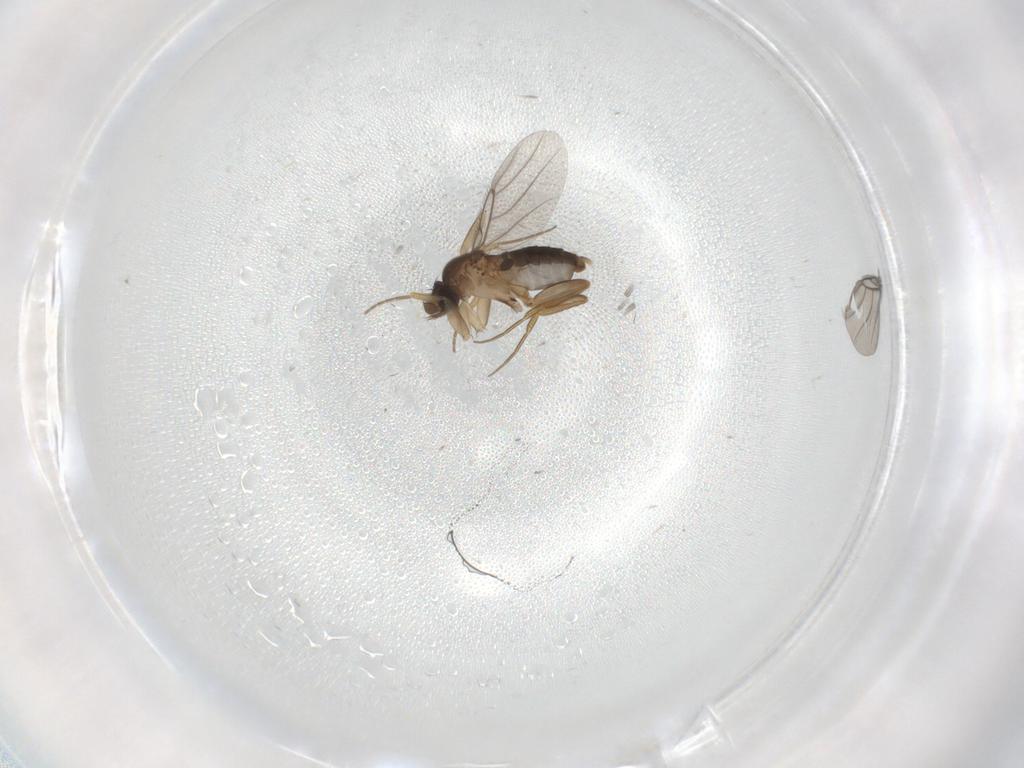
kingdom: Animalia
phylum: Arthropoda
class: Insecta
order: Diptera
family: Phoridae
